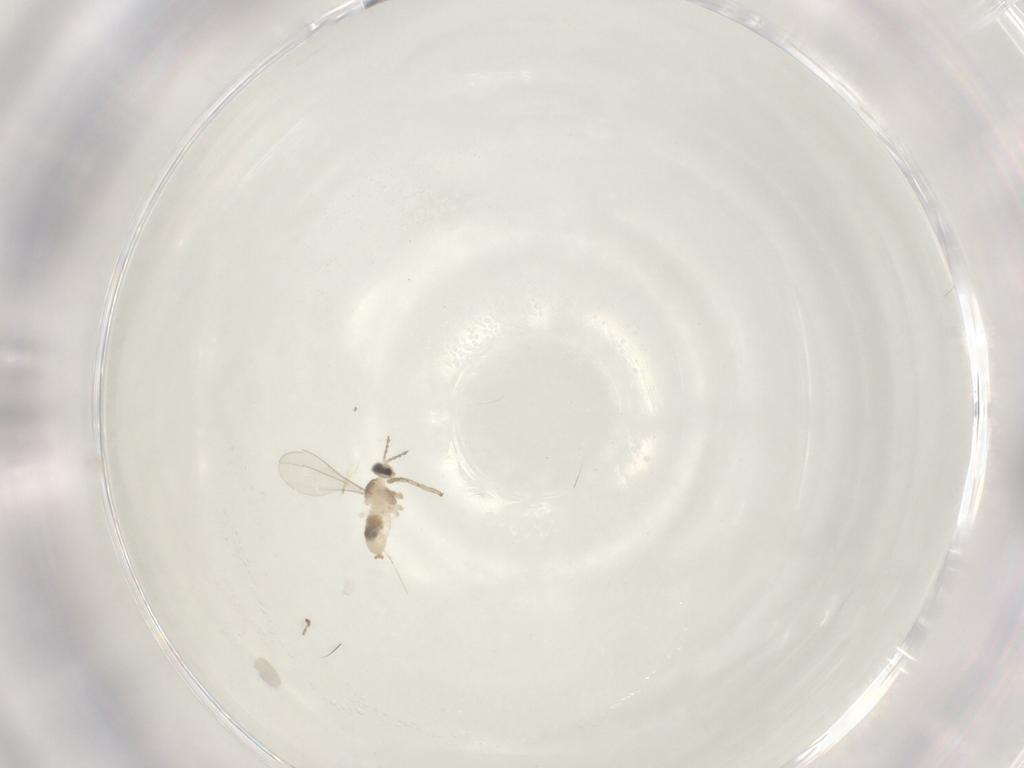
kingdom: Animalia
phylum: Arthropoda
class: Insecta
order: Diptera
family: Cecidomyiidae
